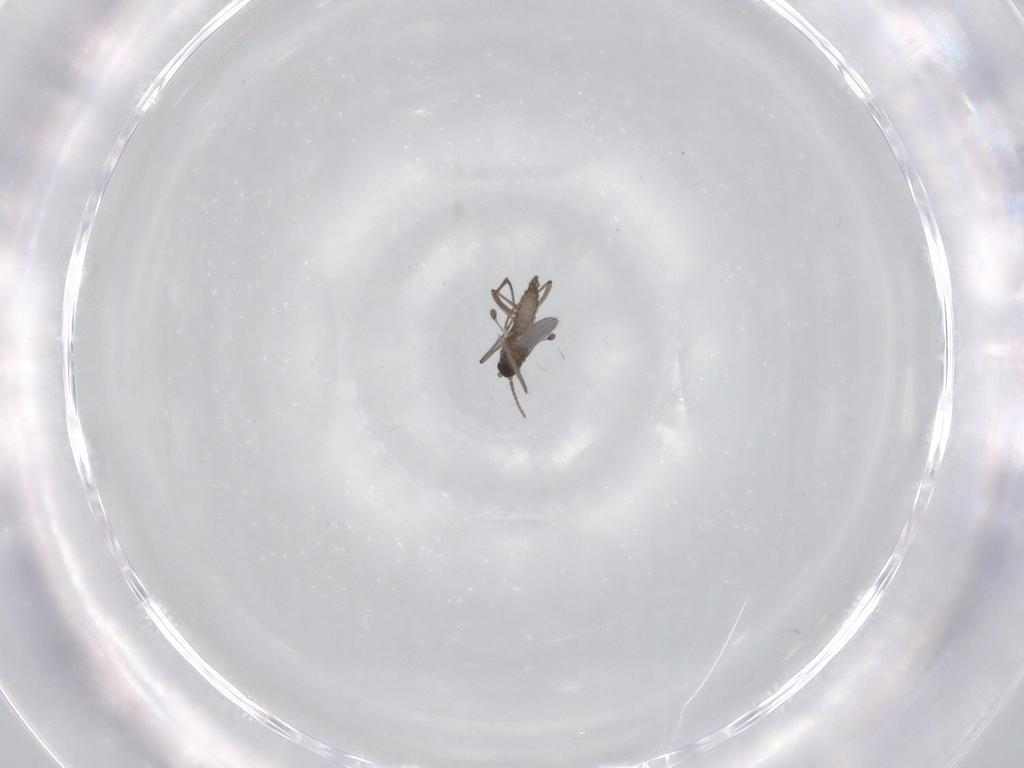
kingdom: Animalia
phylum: Arthropoda
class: Insecta
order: Diptera
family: Sciaridae
